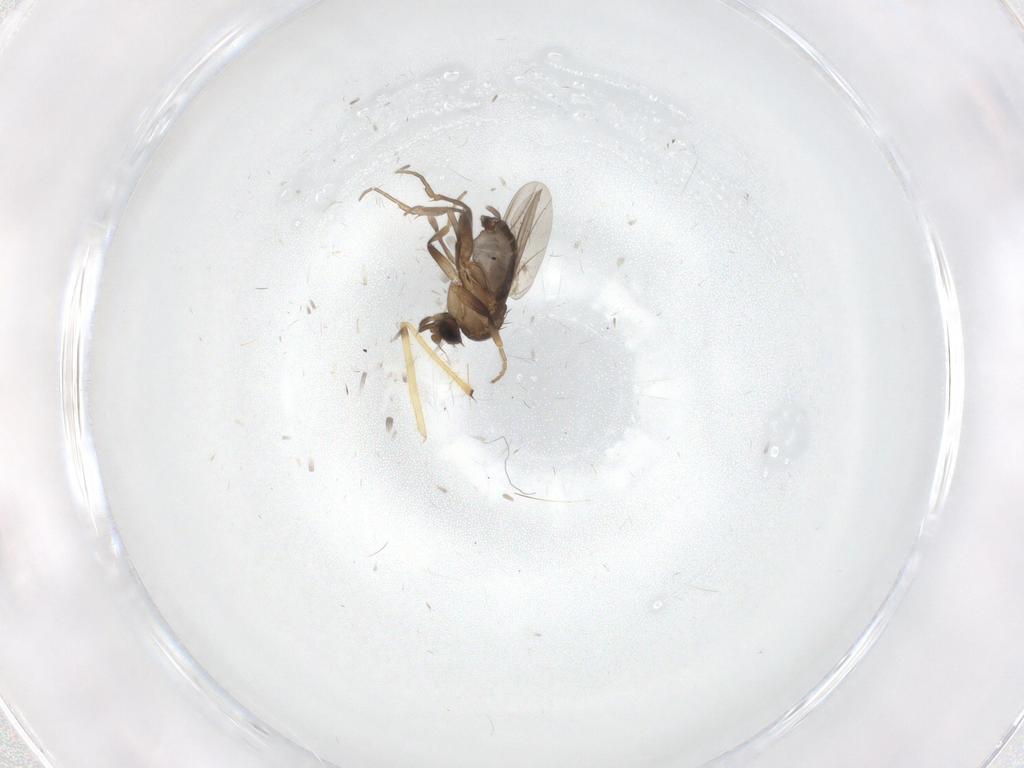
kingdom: Animalia
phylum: Arthropoda
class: Insecta
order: Diptera
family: Chironomidae
